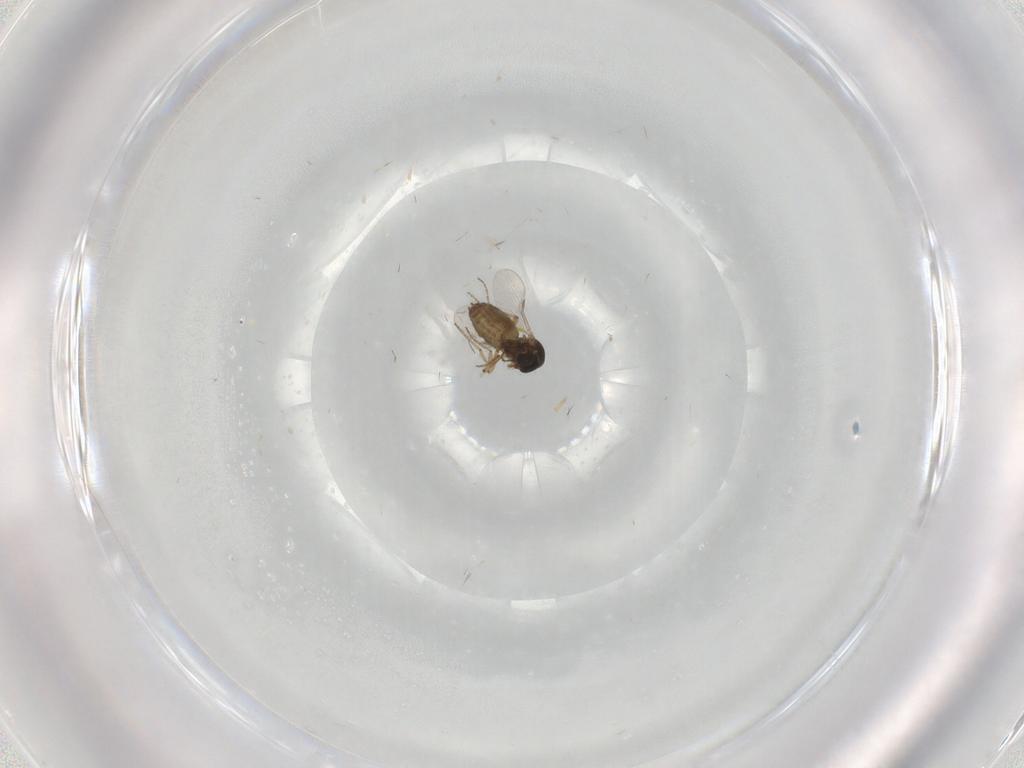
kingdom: Animalia
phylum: Arthropoda
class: Insecta
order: Diptera
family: Ceratopogonidae
